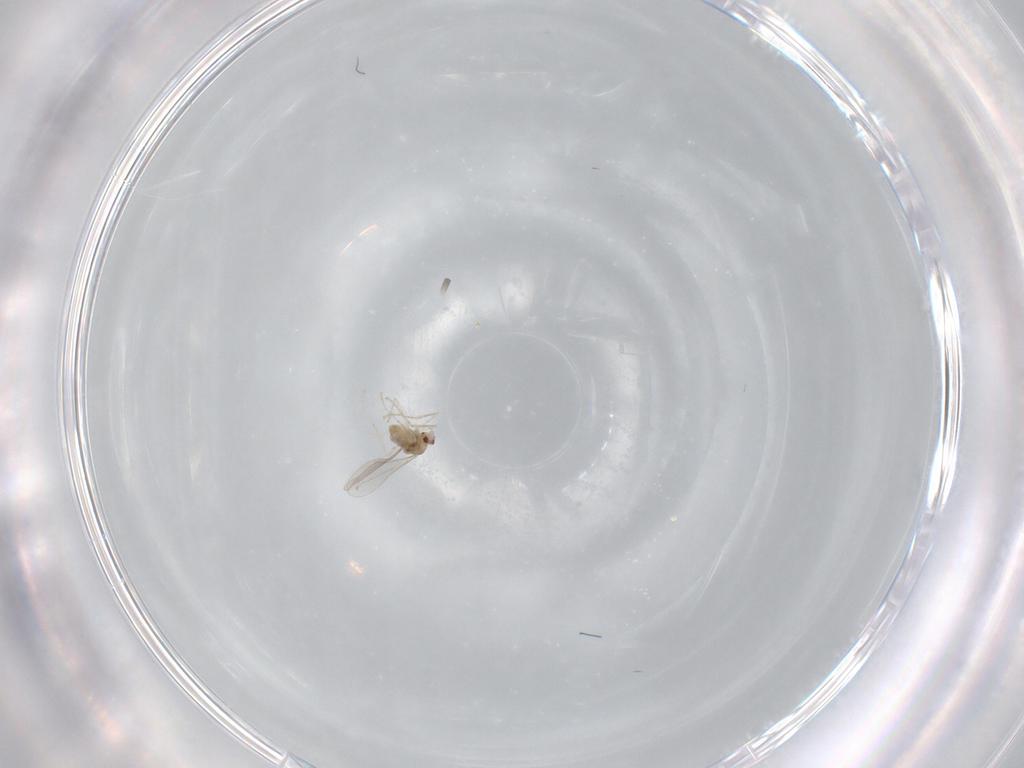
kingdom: Animalia
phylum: Arthropoda
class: Insecta
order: Diptera
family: Cecidomyiidae
